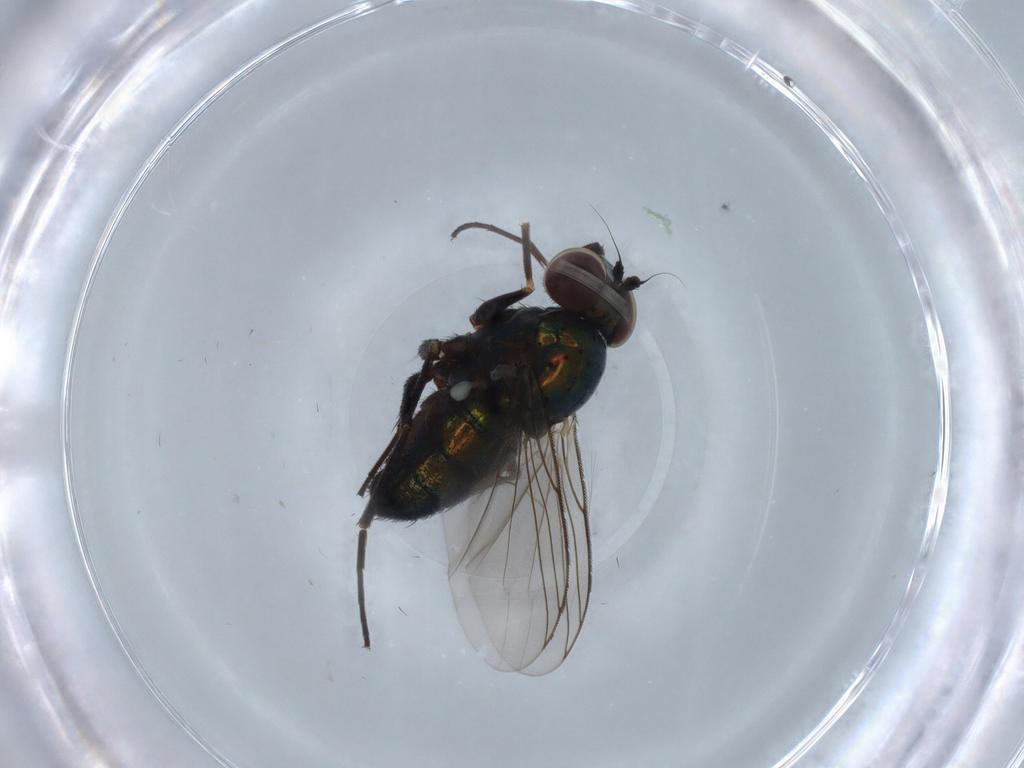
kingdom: Animalia
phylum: Arthropoda
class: Insecta
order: Diptera
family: Dolichopodidae
